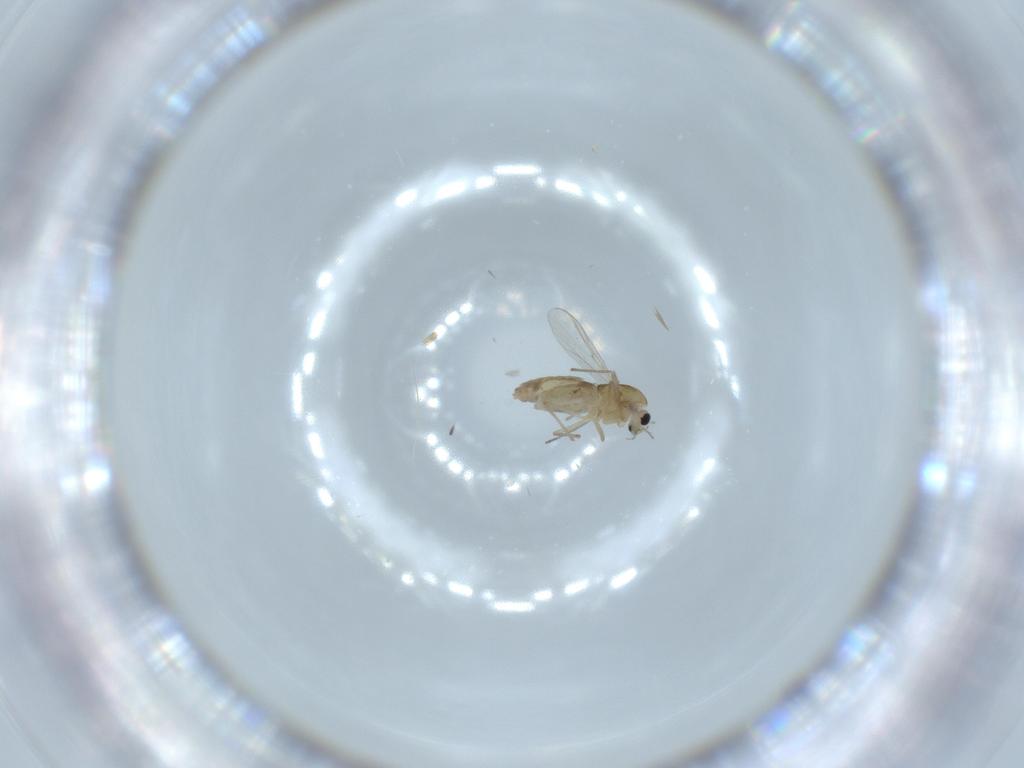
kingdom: Animalia
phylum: Arthropoda
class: Insecta
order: Diptera
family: Chironomidae
